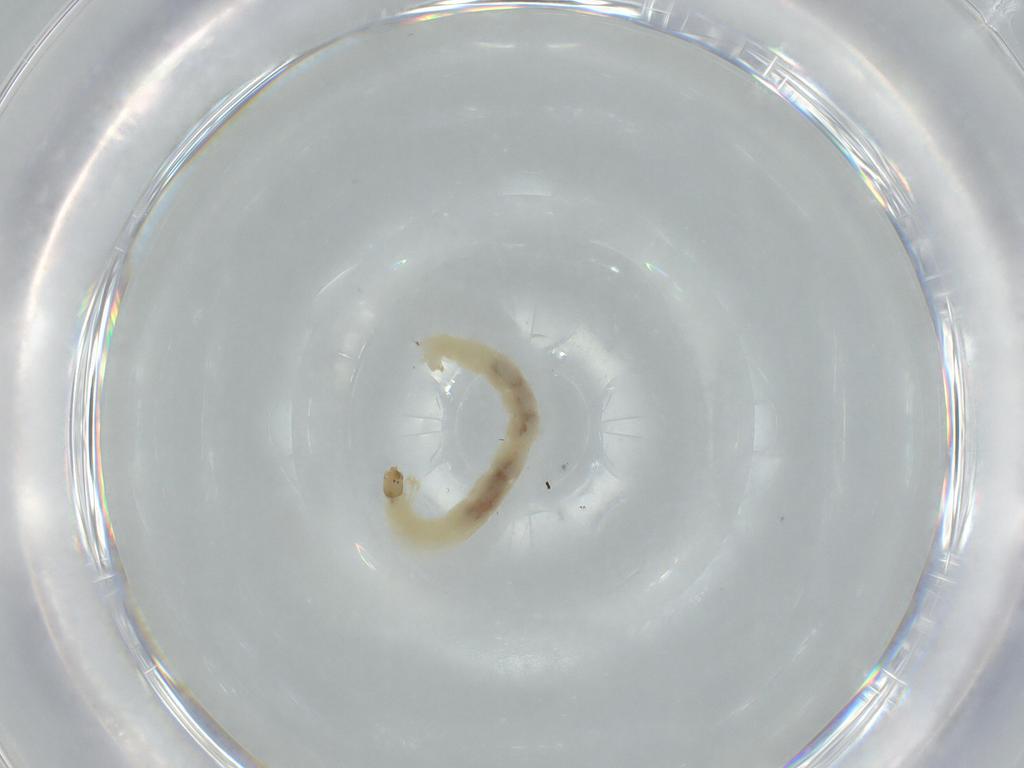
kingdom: Animalia
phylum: Arthropoda
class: Insecta
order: Diptera
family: Chironomidae
